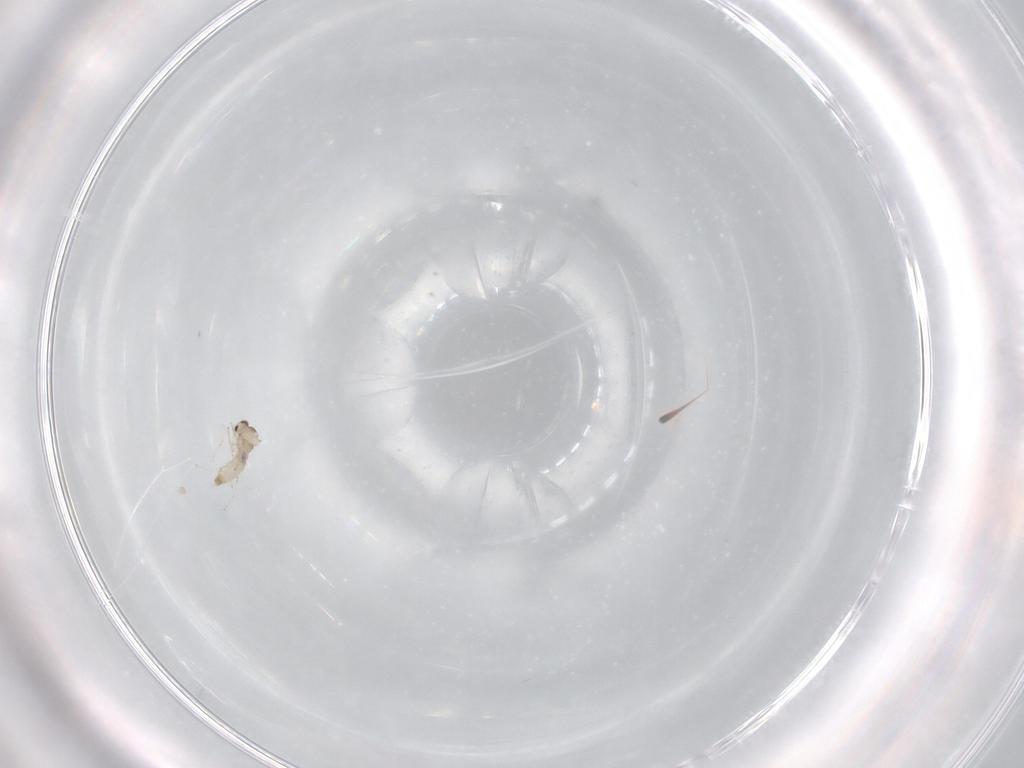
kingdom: Animalia
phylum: Arthropoda
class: Insecta
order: Diptera
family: Cecidomyiidae
